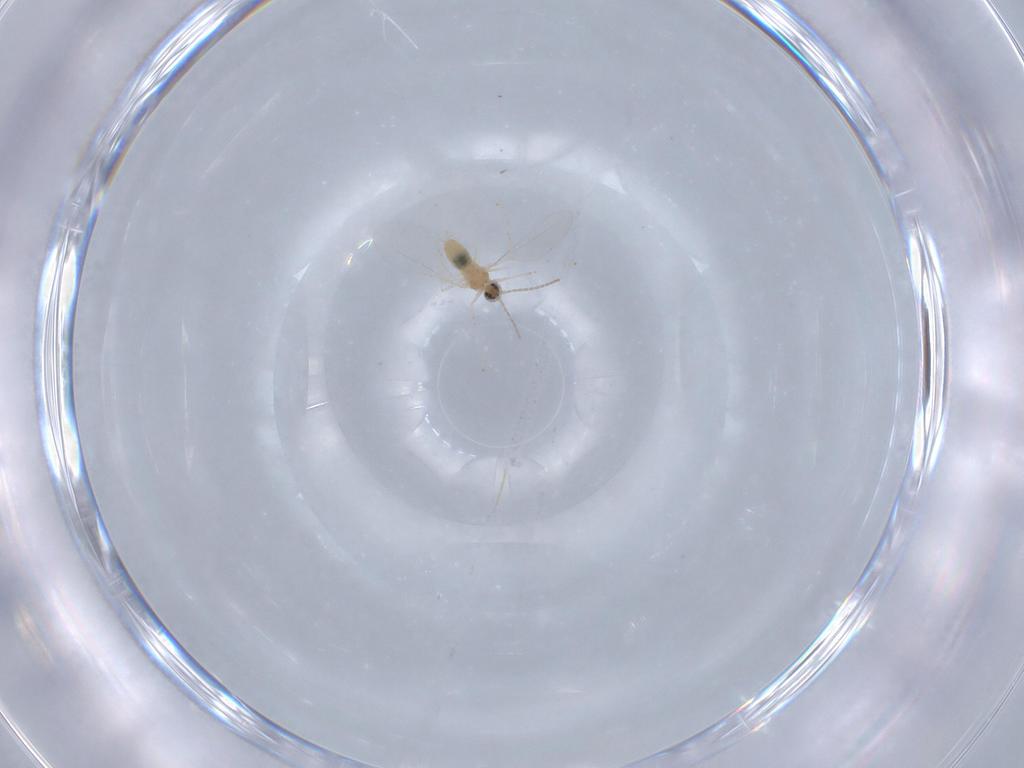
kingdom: Animalia
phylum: Arthropoda
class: Insecta
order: Diptera
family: Cecidomyiidae
